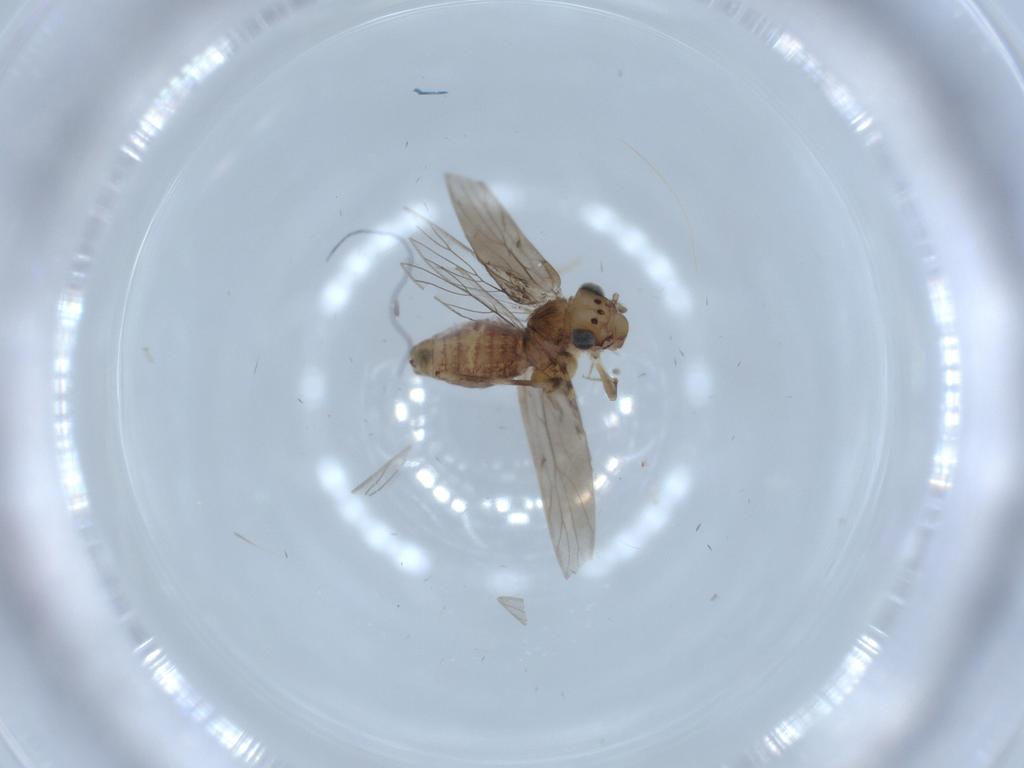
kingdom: Animalia
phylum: Arthropoda
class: Insecta
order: Psocodea
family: Lepidopsocidae
